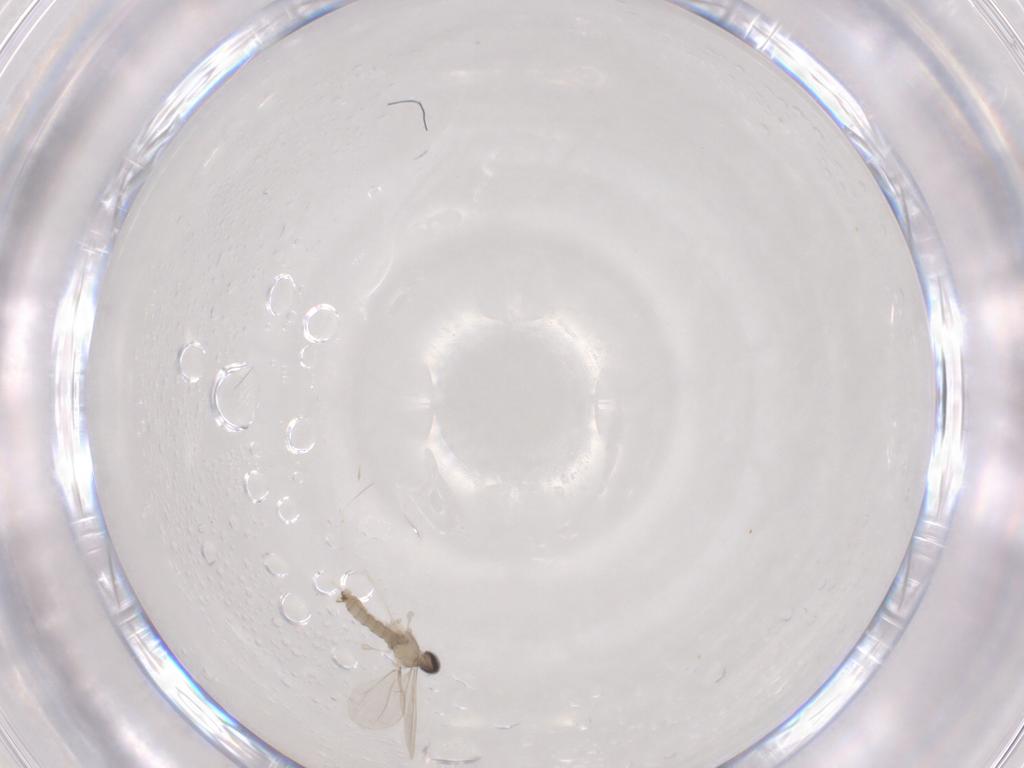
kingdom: Animalia
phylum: Arthropoda
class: Insecta
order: Diptera
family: Cecidomyiidae
